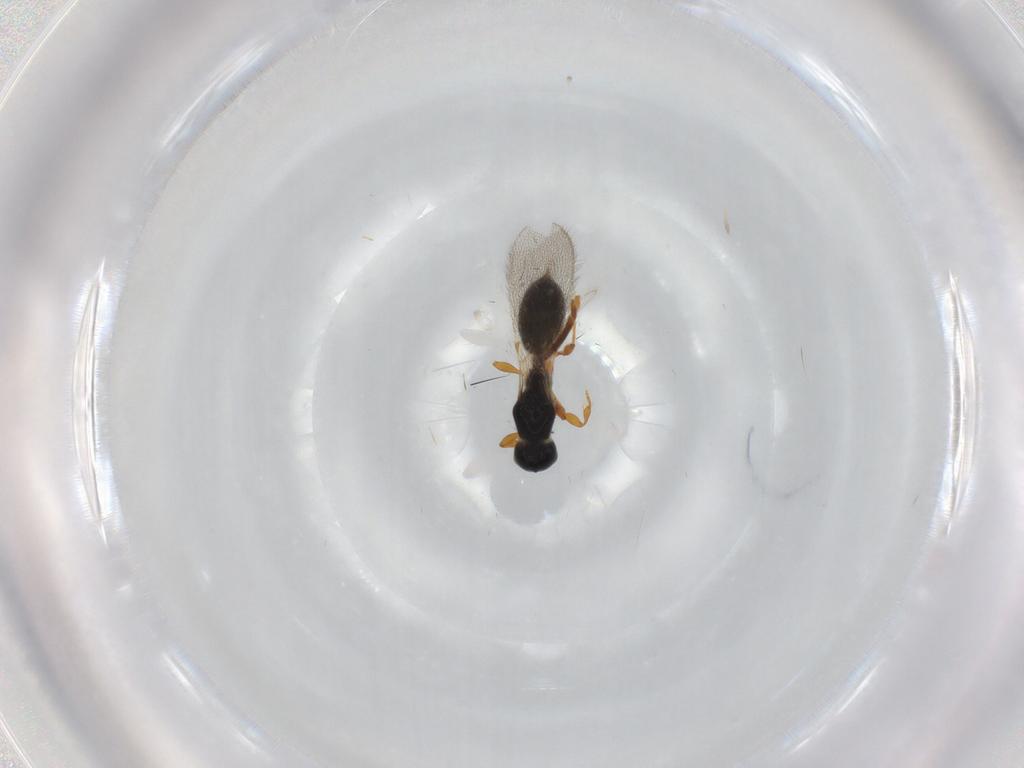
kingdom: Animalia
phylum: Arthropoda
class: Insecta
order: Hymenoptera
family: Diapriidae
